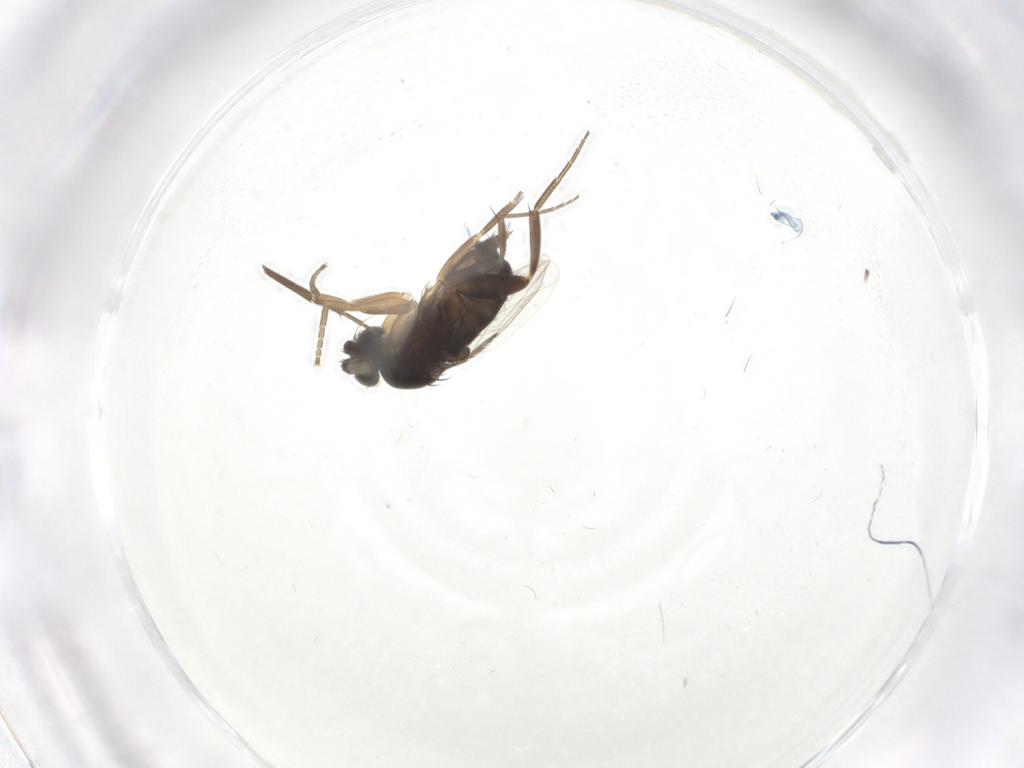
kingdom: Animalia
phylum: Arthropoda
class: Insecta
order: Diptera
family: Phoridae
